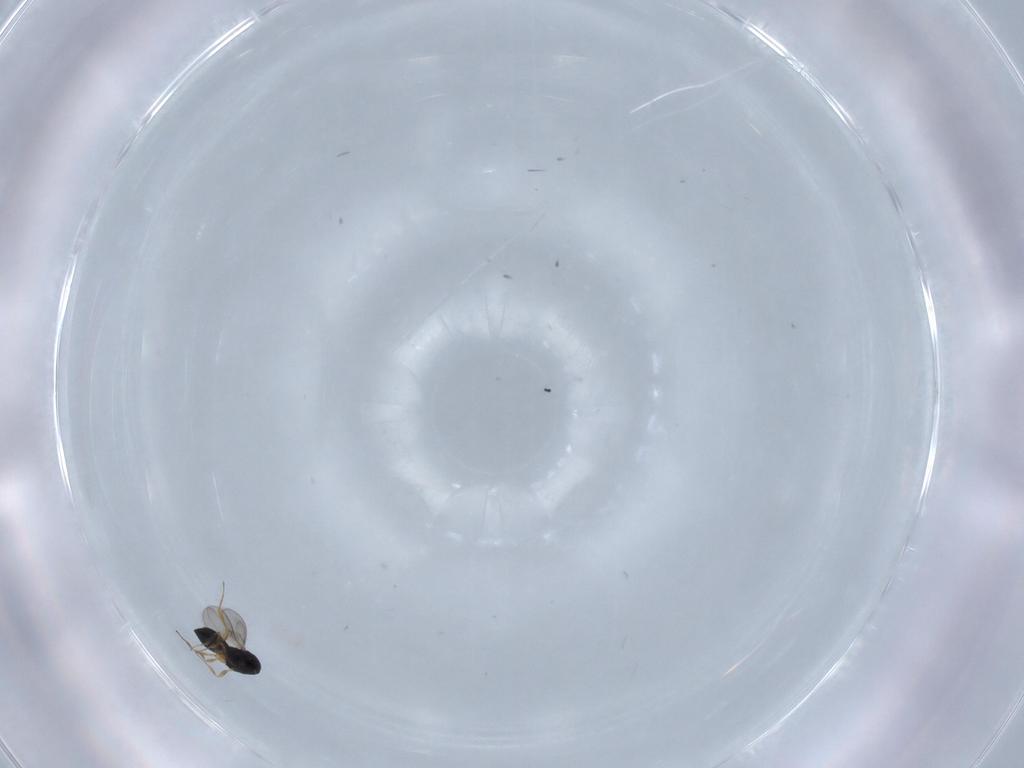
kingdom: Animalia
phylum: Arthropoda
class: Insecta
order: Hymenoptera
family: Scelionidae
